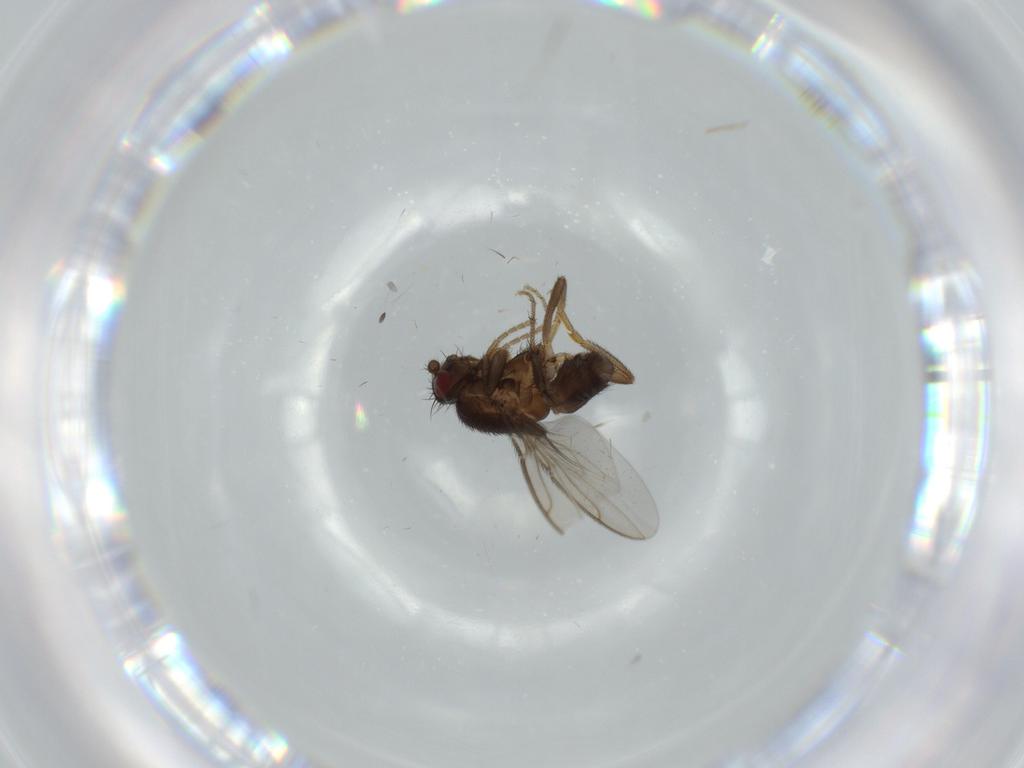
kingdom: Animalia
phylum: Arthropoda
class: Insecta
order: Diptera
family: Sphaeroceridae
